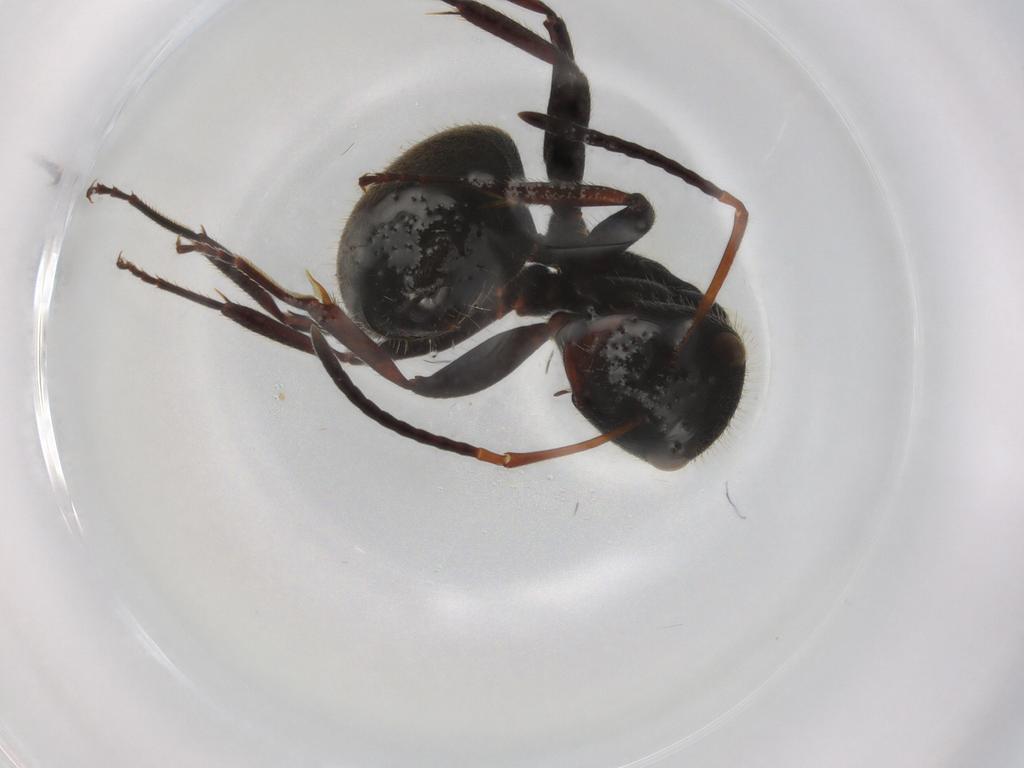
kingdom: Animalia
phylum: Arthropoda
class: Insecta
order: Hymenoptera
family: Formicidae
